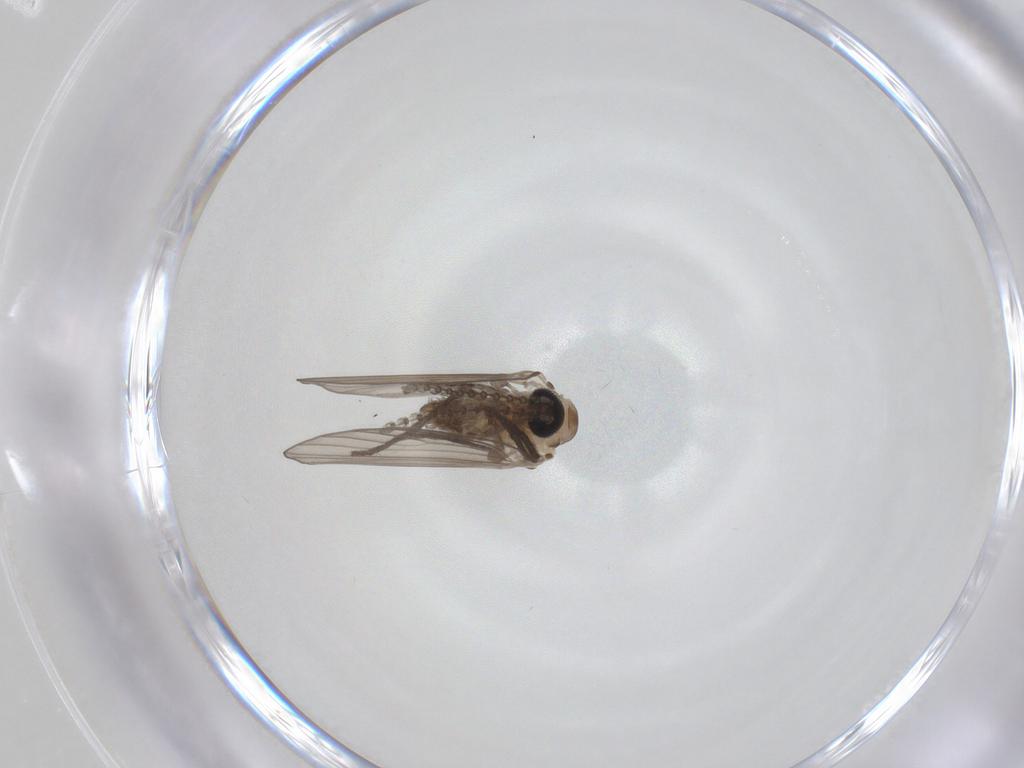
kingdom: Animalia
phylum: Arthropoda
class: Insecta
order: Diptera
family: Psychodidae
